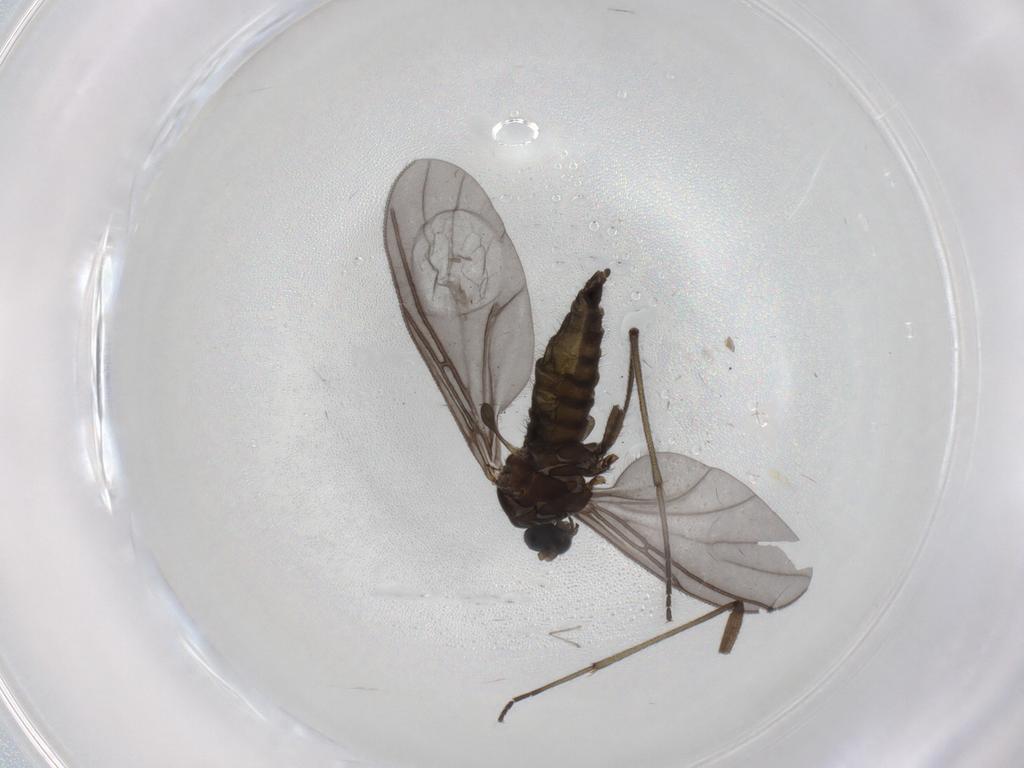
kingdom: Animalia
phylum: Arthropoda
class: Insecta
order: Diptera
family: Sciaridae
